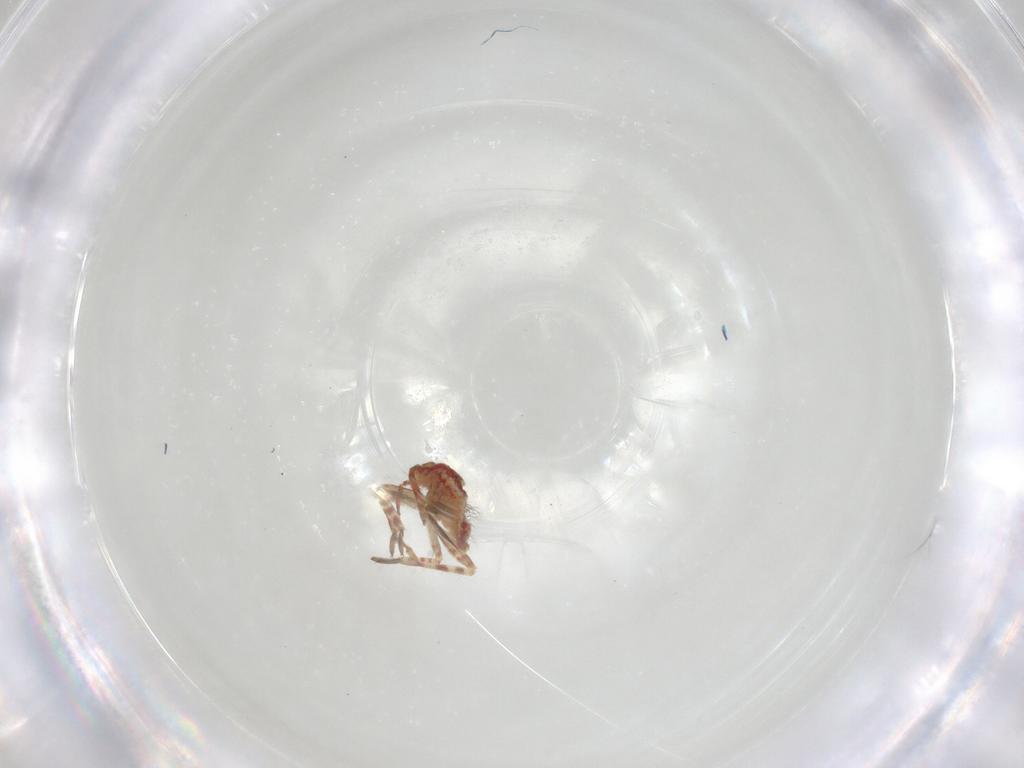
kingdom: Animalia
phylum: Arthropoda
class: Insecta
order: Hemiptera
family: Miridae
